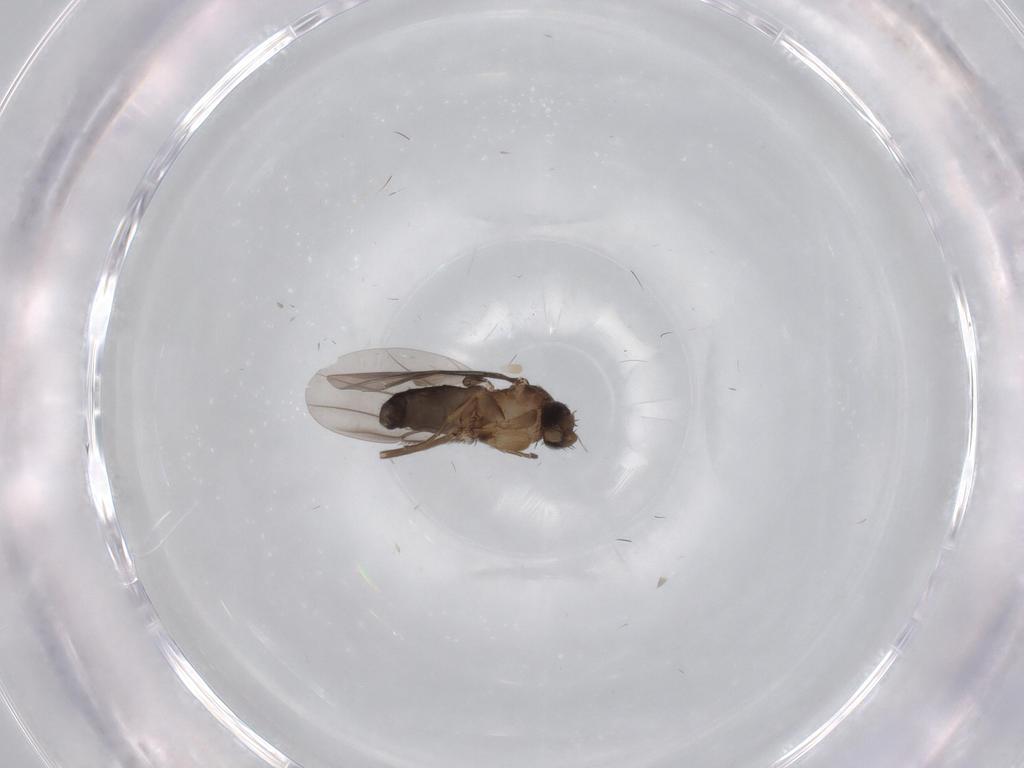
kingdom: Animalia
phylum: Arthropoda
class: Insecta
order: Diptera
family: Phoridae
